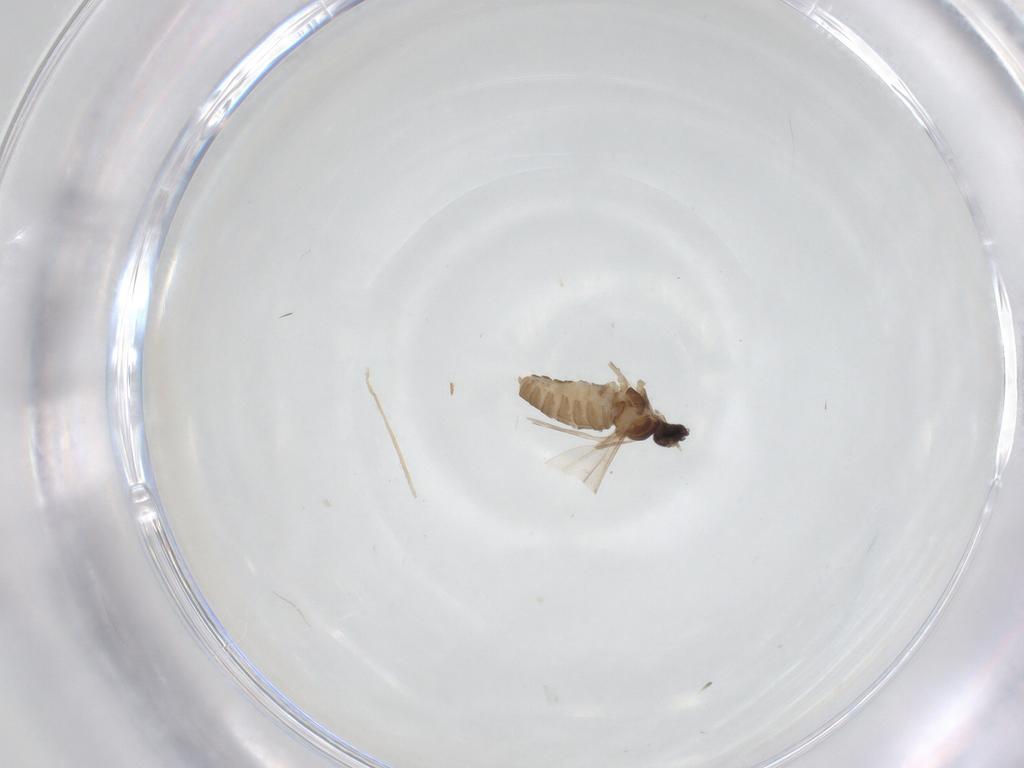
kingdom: Animalia
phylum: Arthropoda
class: Insecta
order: Diptera
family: Cecidomyiidae
